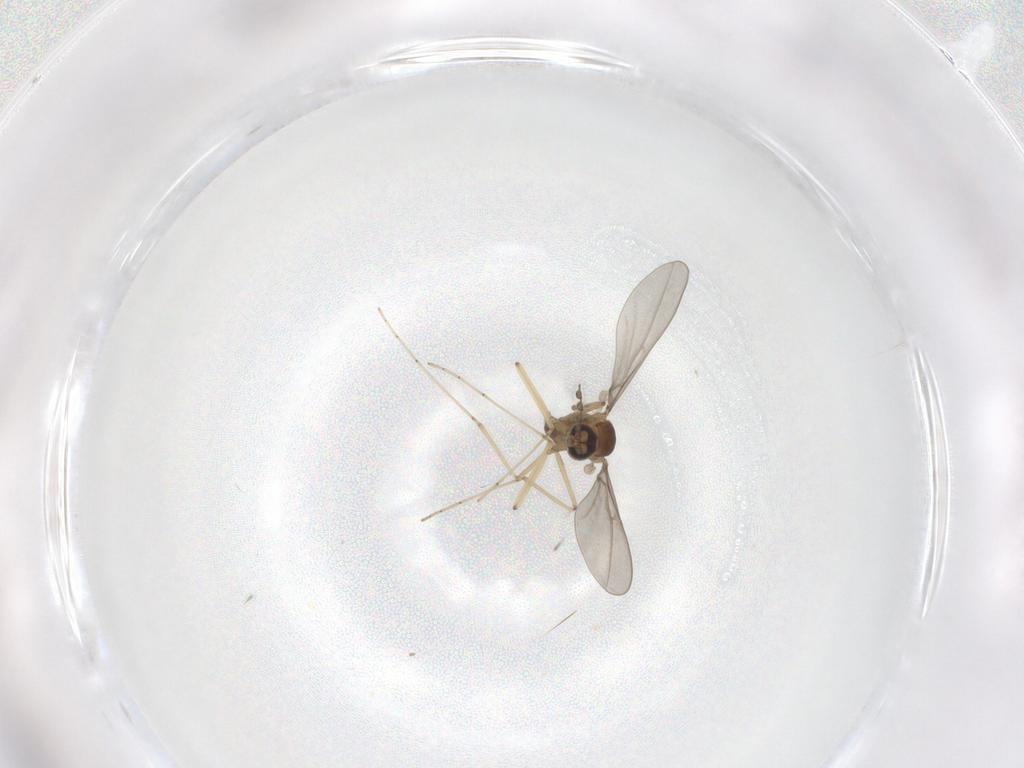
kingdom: Animalia
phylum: Arthropoda
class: Insecta
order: Diptera
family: Cecidomyiidae
